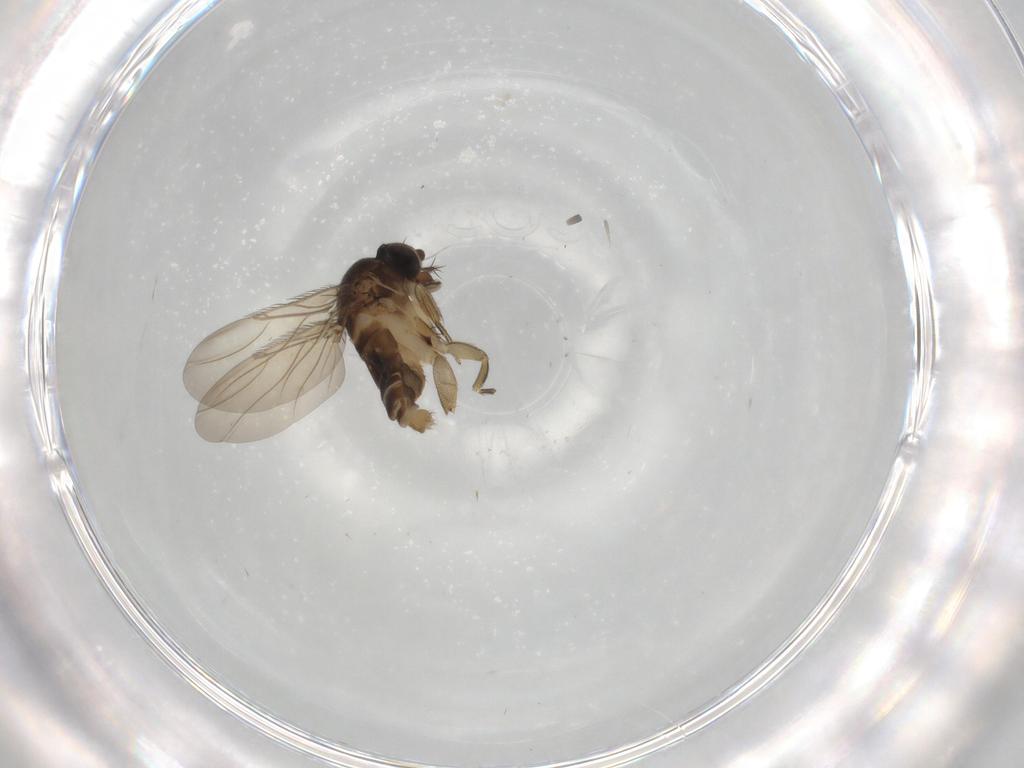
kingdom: Animalia
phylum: Arthropoda
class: Insecta
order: Diptera
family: Phoridae
